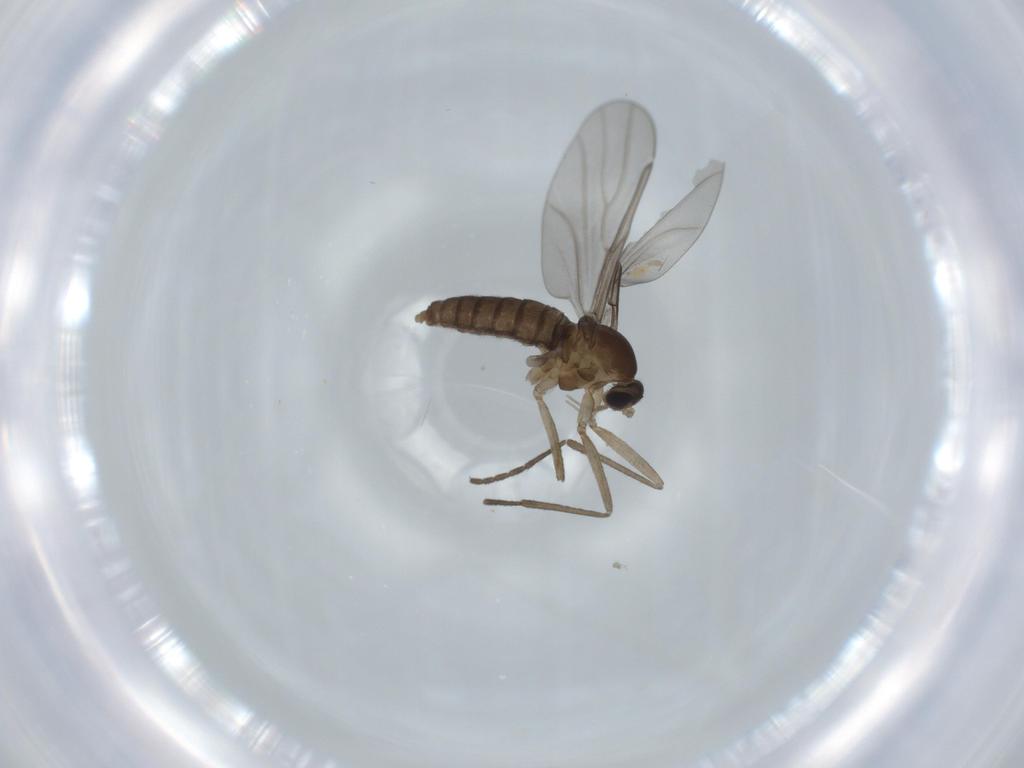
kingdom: Animalia
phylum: Arthropoda
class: Insecta
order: Diptera
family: Cecidomyiidae
